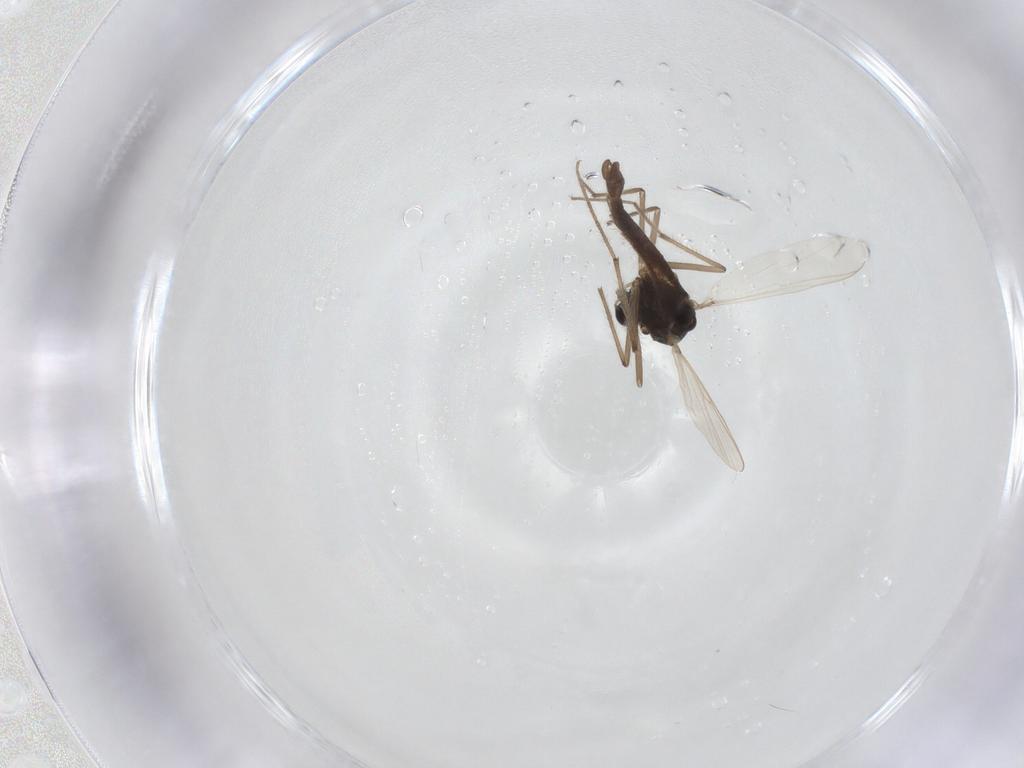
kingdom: Animalia
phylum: Arthropoda
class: Insecta
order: Diptera
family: Chironomidae
